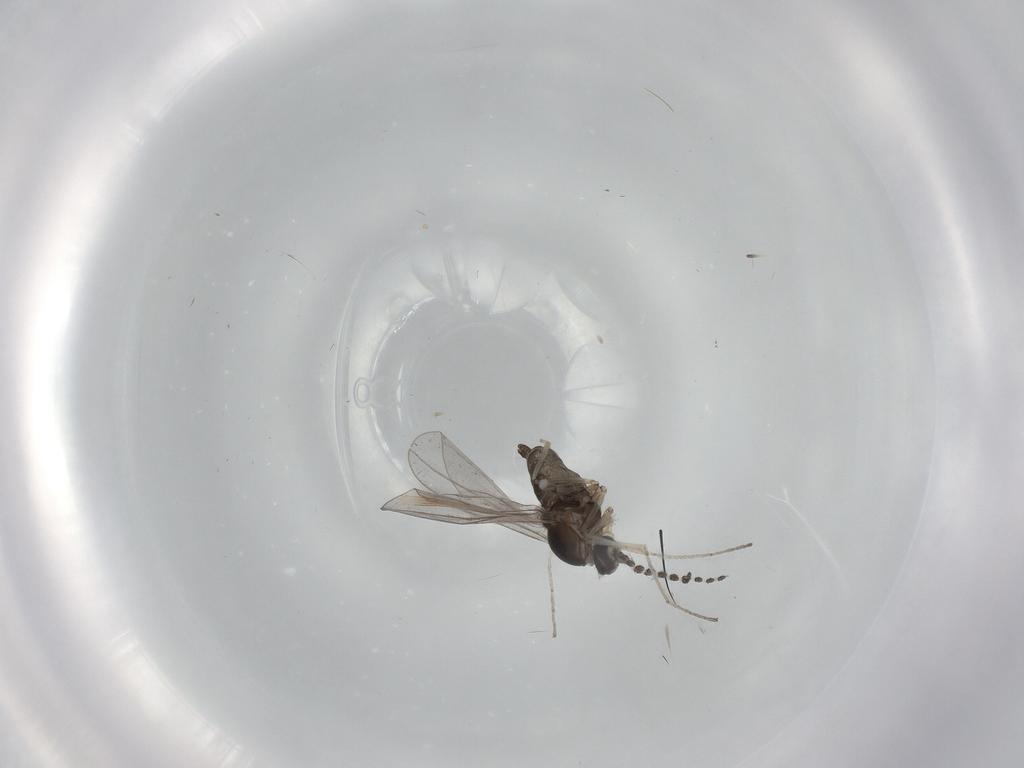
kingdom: Animalia
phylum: Arthropoda
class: Insecta
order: Diptera
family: Cecidomyiidae
